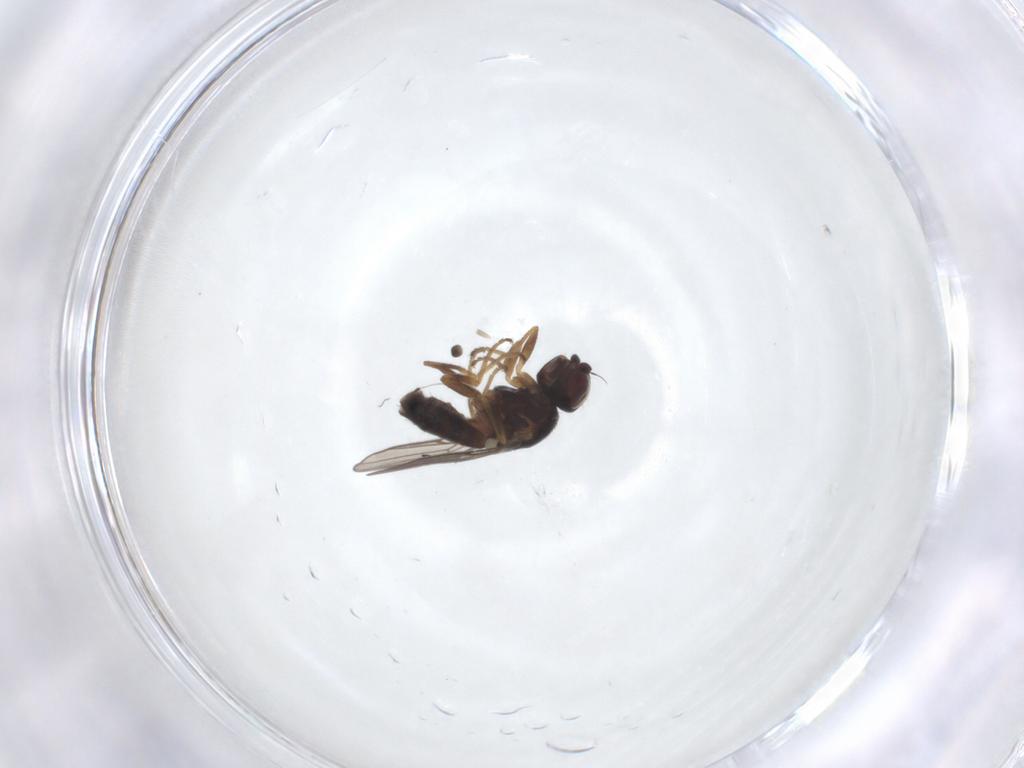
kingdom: Animalia
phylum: Arthropoda
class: Insecta
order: Diptera
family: Chloropidae
